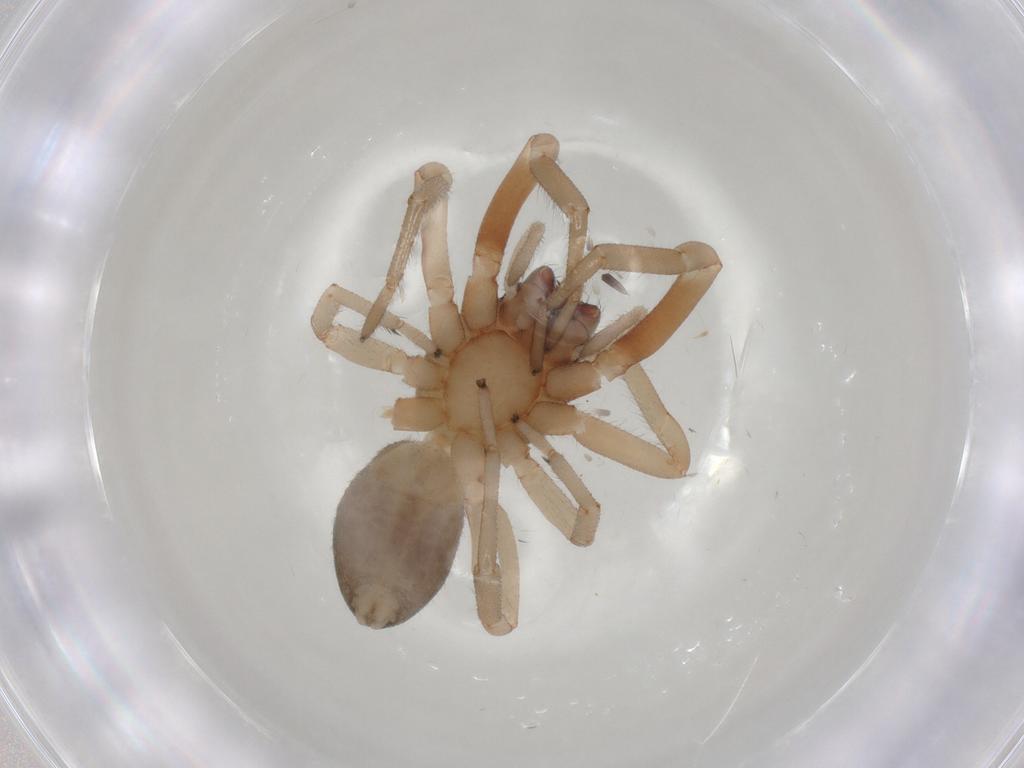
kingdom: Animalia
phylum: Arthropoda
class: Arachnida
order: Araneae
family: Trachelidae
